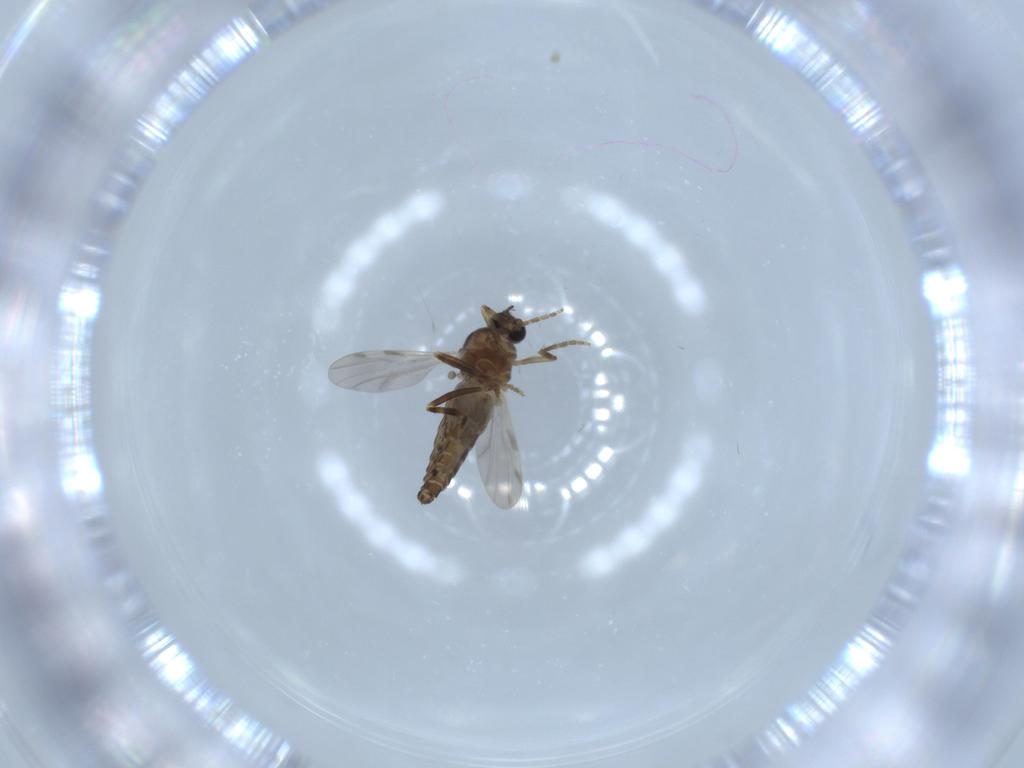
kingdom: Animalia
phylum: Arthropoda
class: Insecta
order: Diptera
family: Ceratopogonidae
